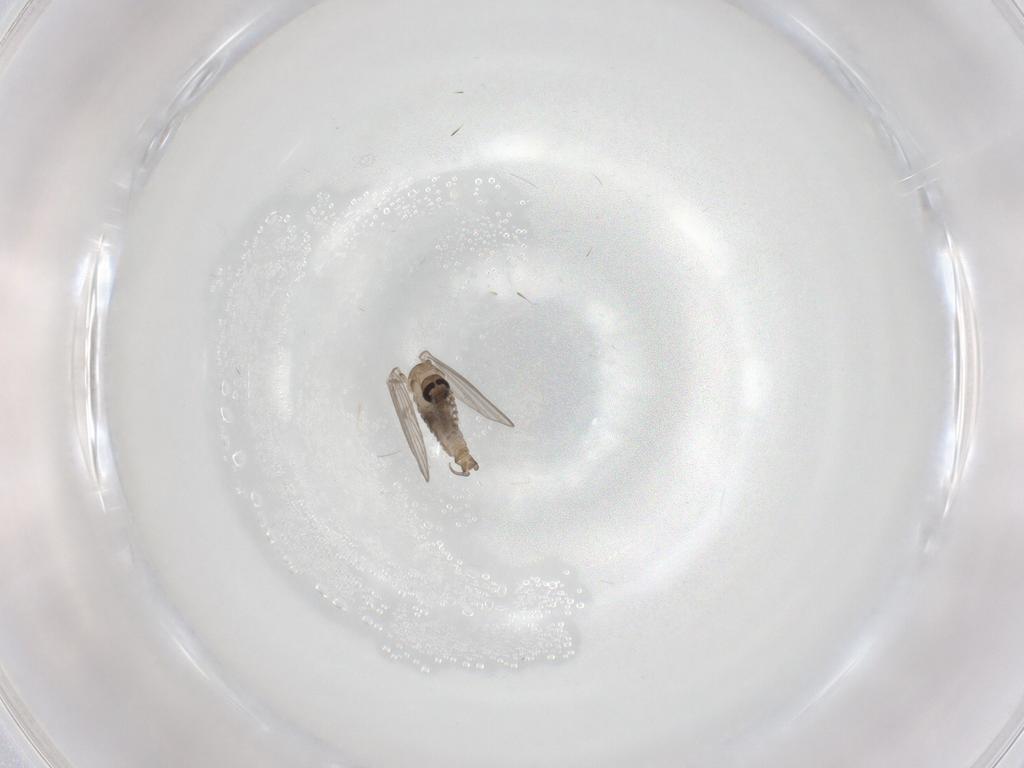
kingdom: Animalia
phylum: Arthropoda
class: Insecta
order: Diptera
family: Psychodidae
